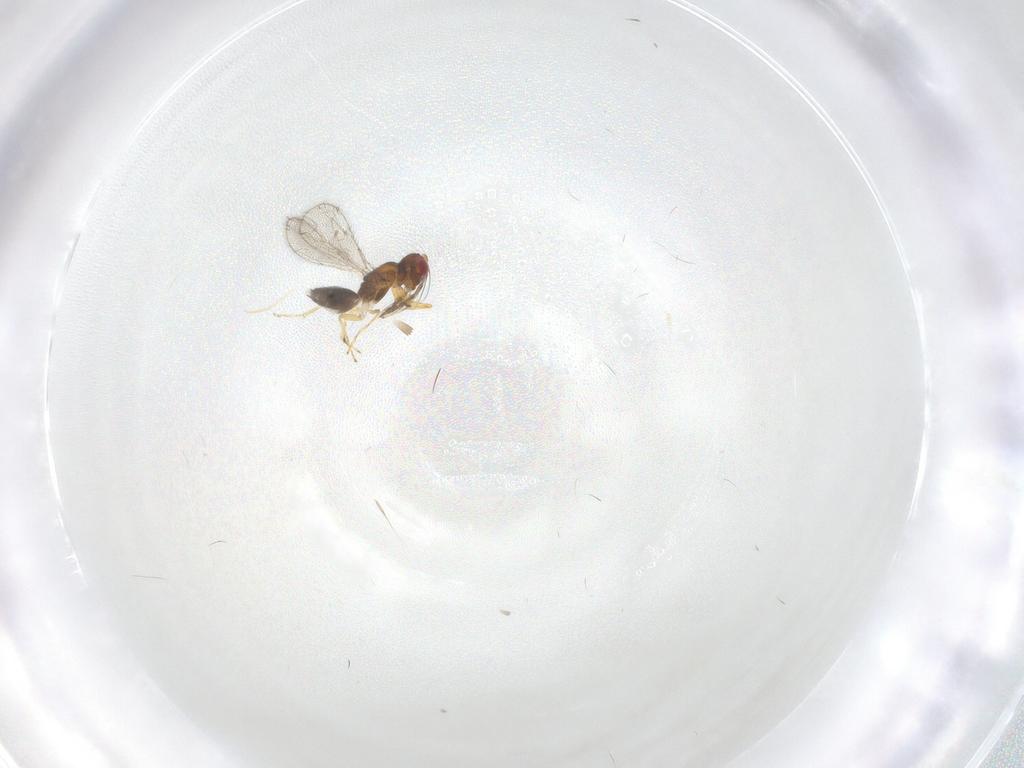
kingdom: Animalia
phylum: Arthropoda
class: Insecta
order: Hymenoptera
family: Eulophidae
